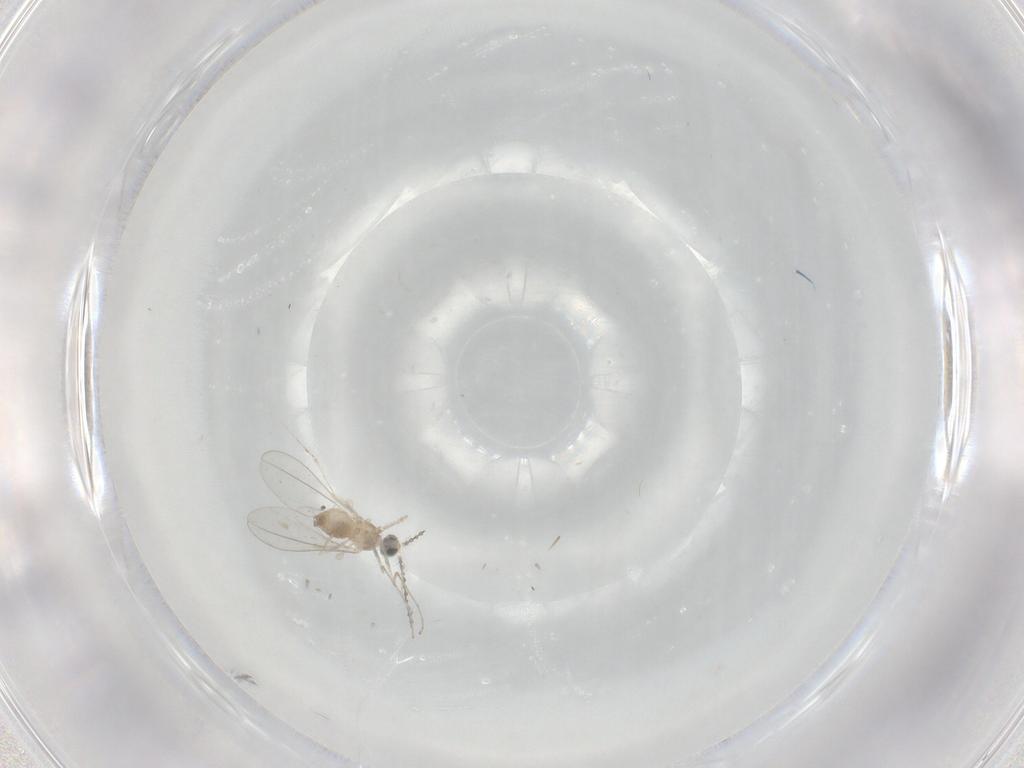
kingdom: Animalia
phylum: Arthropoda
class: Insecta
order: Diptera
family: Cecidomyiidae
